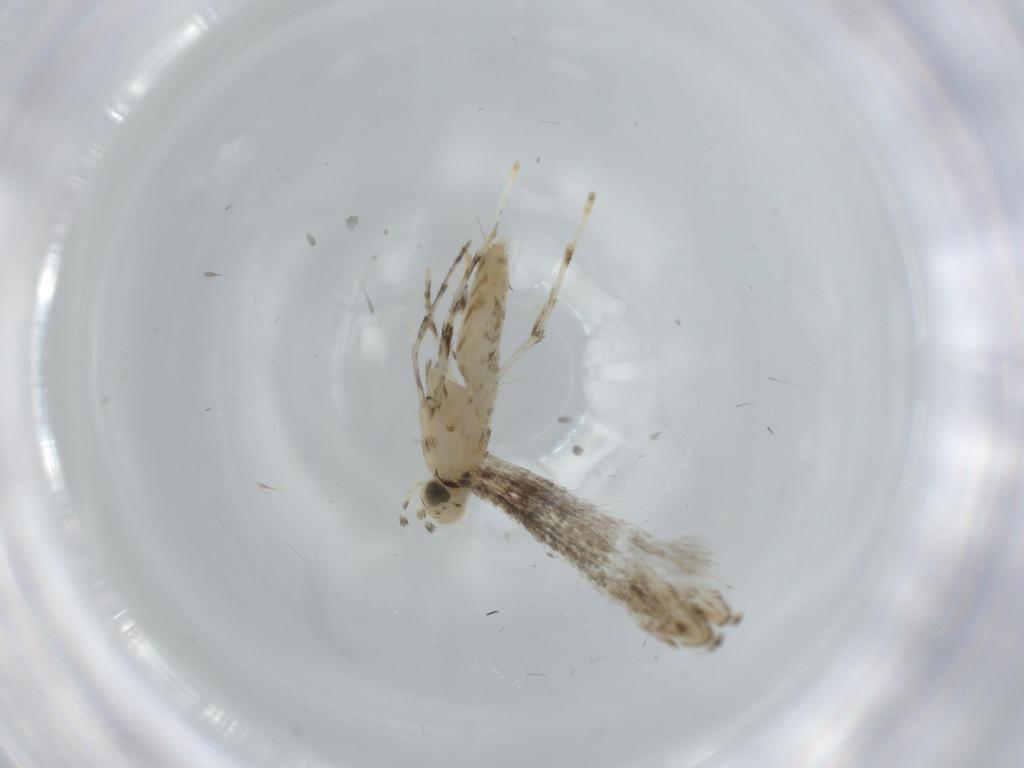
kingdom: Animalia
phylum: Arthropoda
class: Insecta
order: Lepidoptera
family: Gracillariidae
